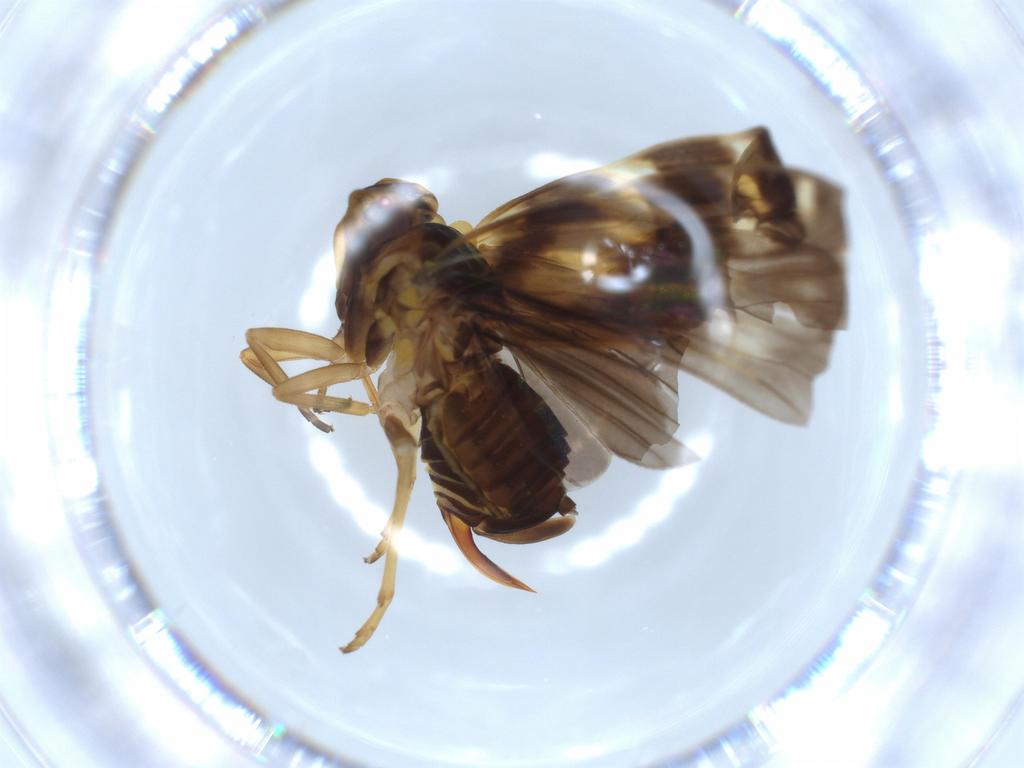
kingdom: Animalia
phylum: Arthropoda
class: Insecta
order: Hemiptera
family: Cixiidae
